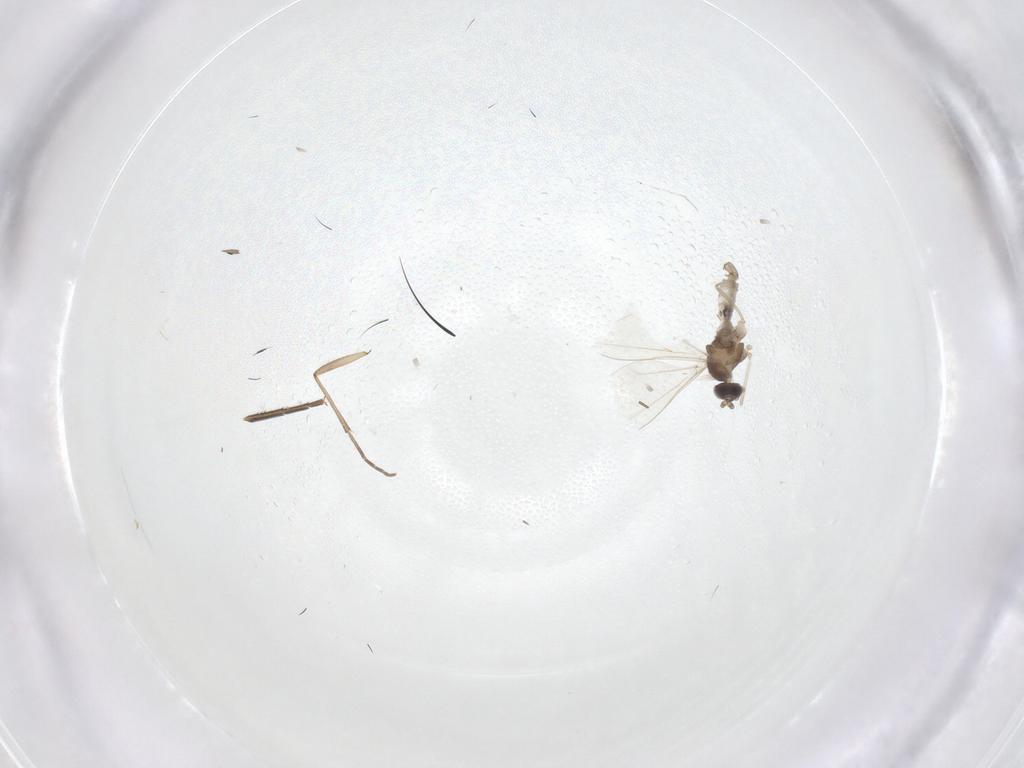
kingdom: Animalia
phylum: Arthropoda
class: Insecta
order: Diptera
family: Cecidomyiidae
